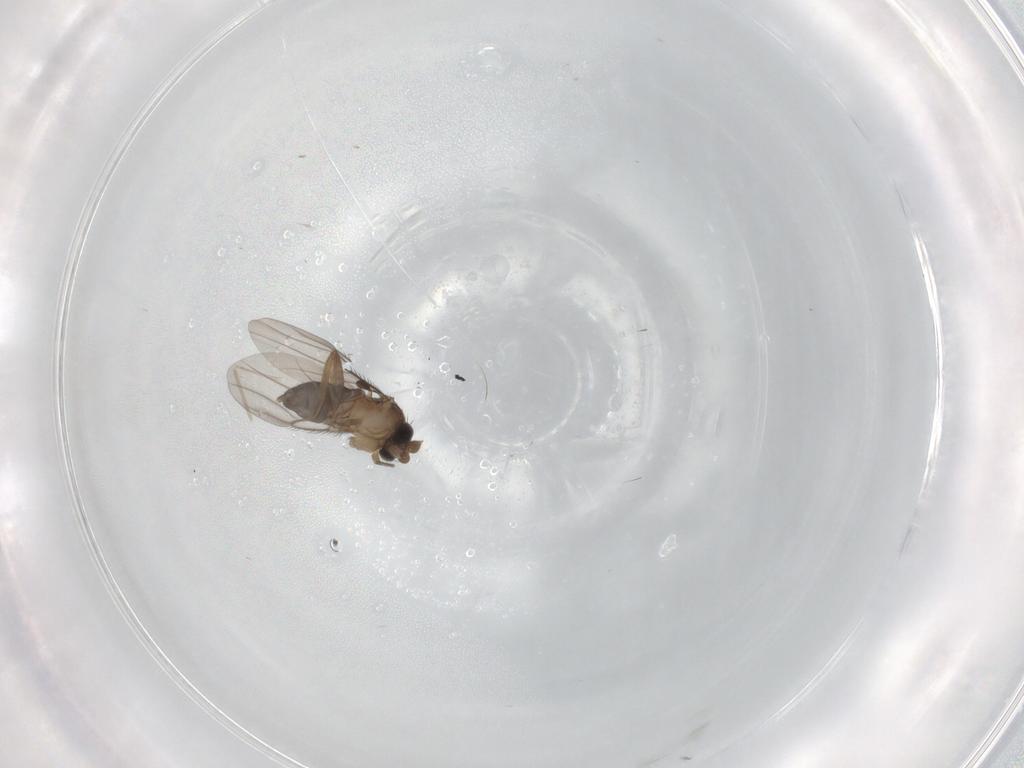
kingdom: Animalia
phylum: Arthropoda
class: Insecta
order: Diptera
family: Phoridae
